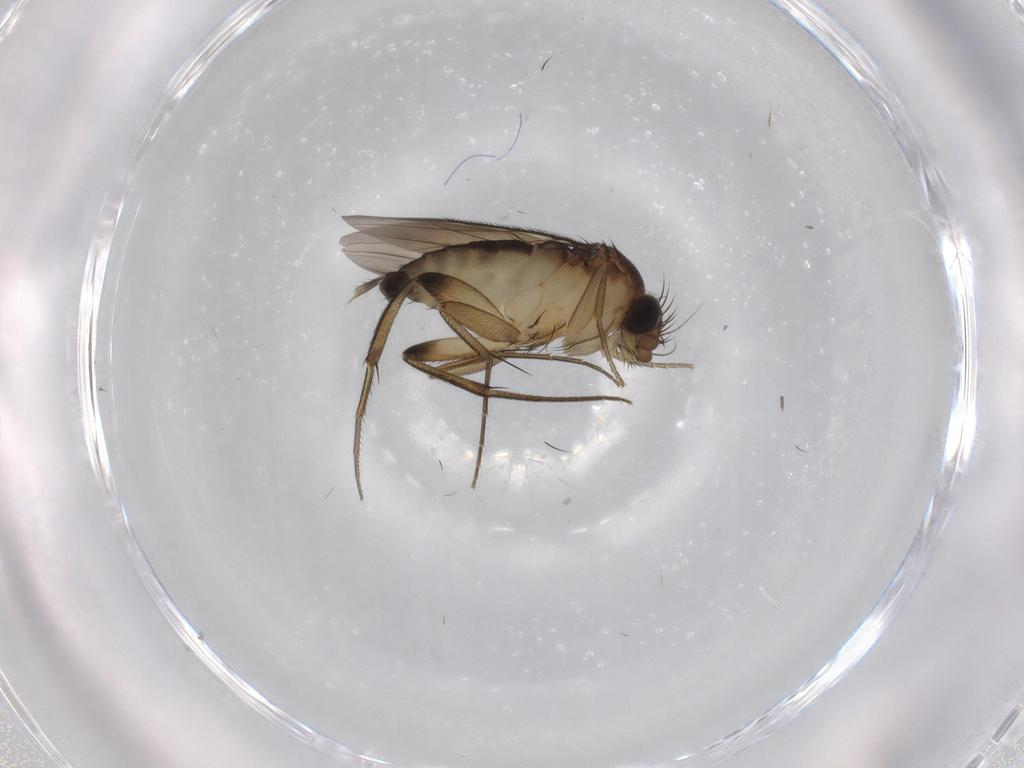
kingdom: Animalia
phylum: Arthropoda
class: Insecta
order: Diptera
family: Phoridae
